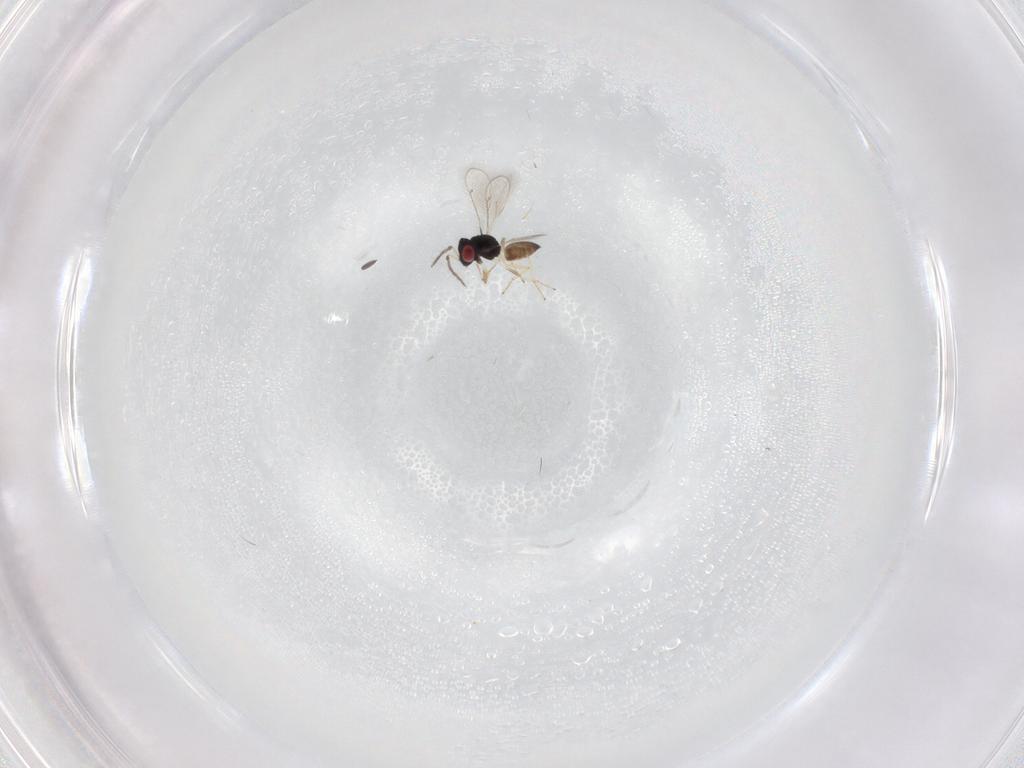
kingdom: Animalia
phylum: Arthropoda
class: Insecta
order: Hymenoptera
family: Eulophidae
